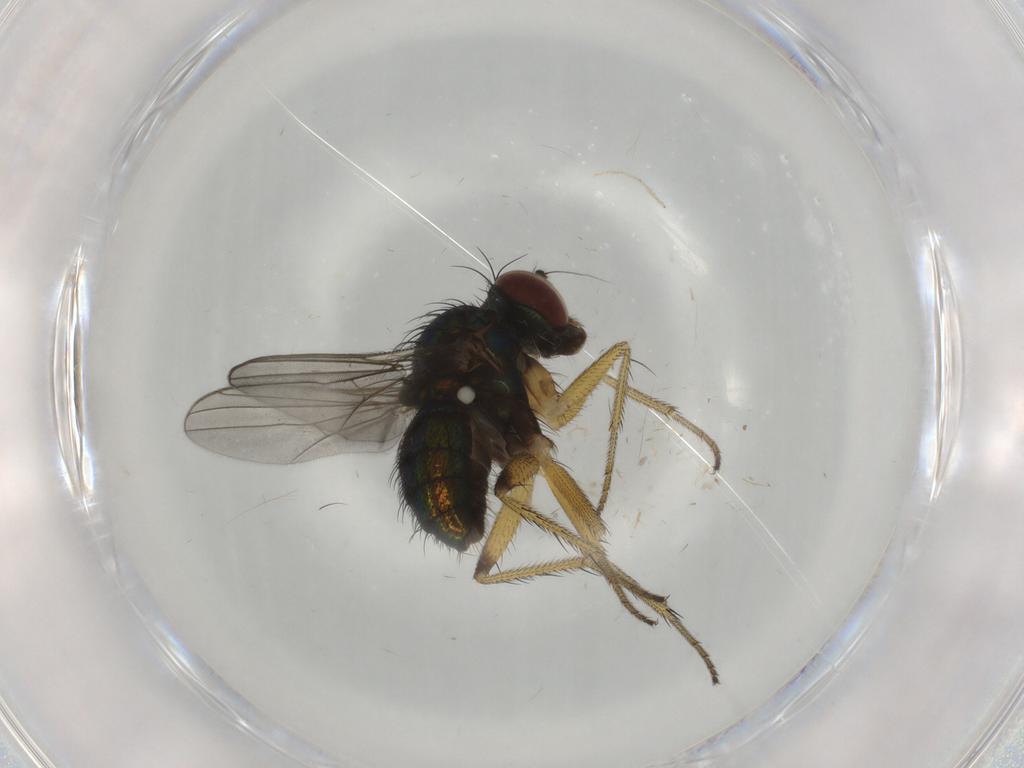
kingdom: Animalia
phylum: Arthropoda
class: Insecta
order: Diptera
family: Dolichopodidae
